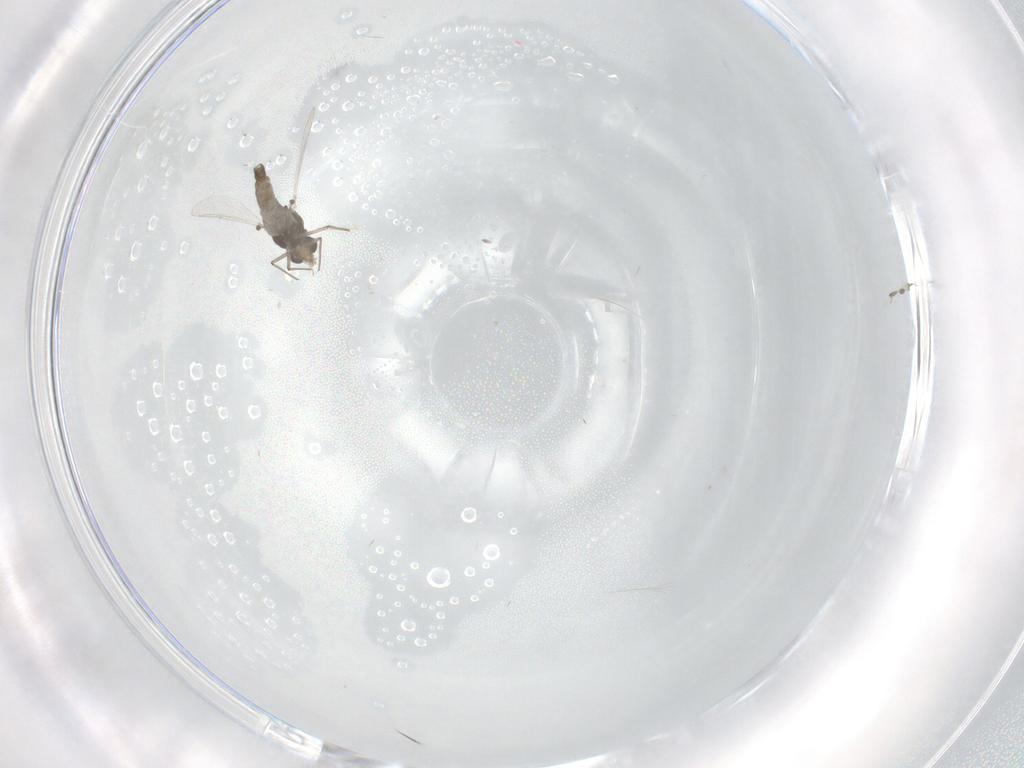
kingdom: Animalia
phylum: Arthropoda
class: Insecta
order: Diptera
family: Chironomidae
